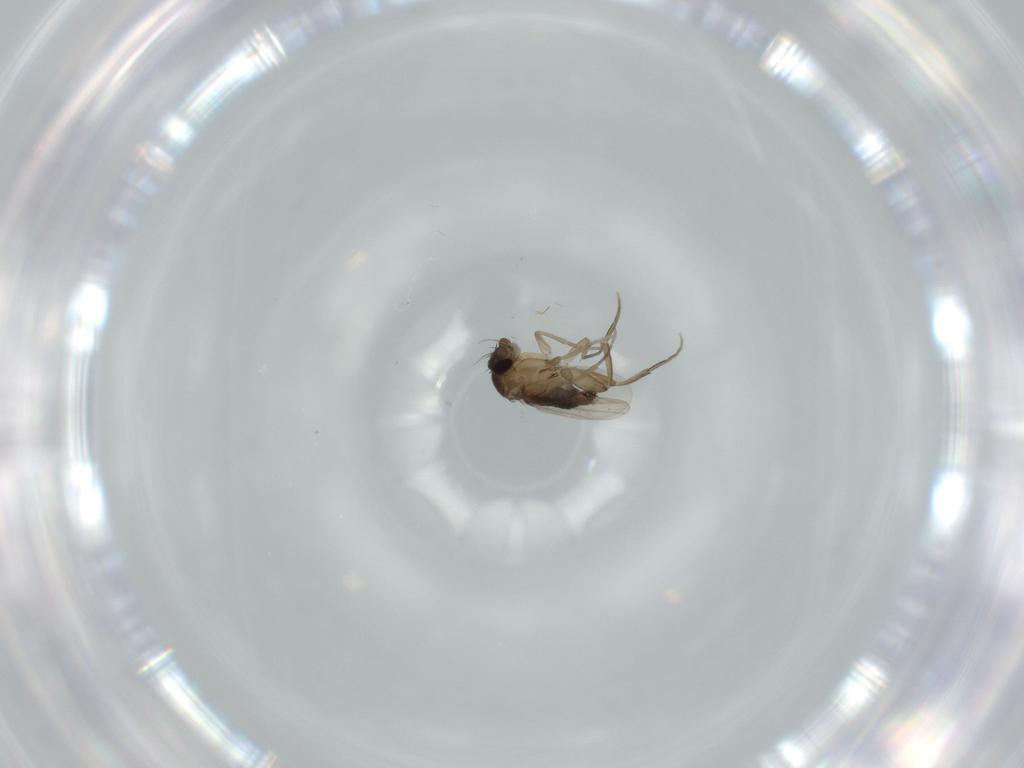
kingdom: Animalia
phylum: Arthropoda
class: Insecta
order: Diptera
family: Phoridae
